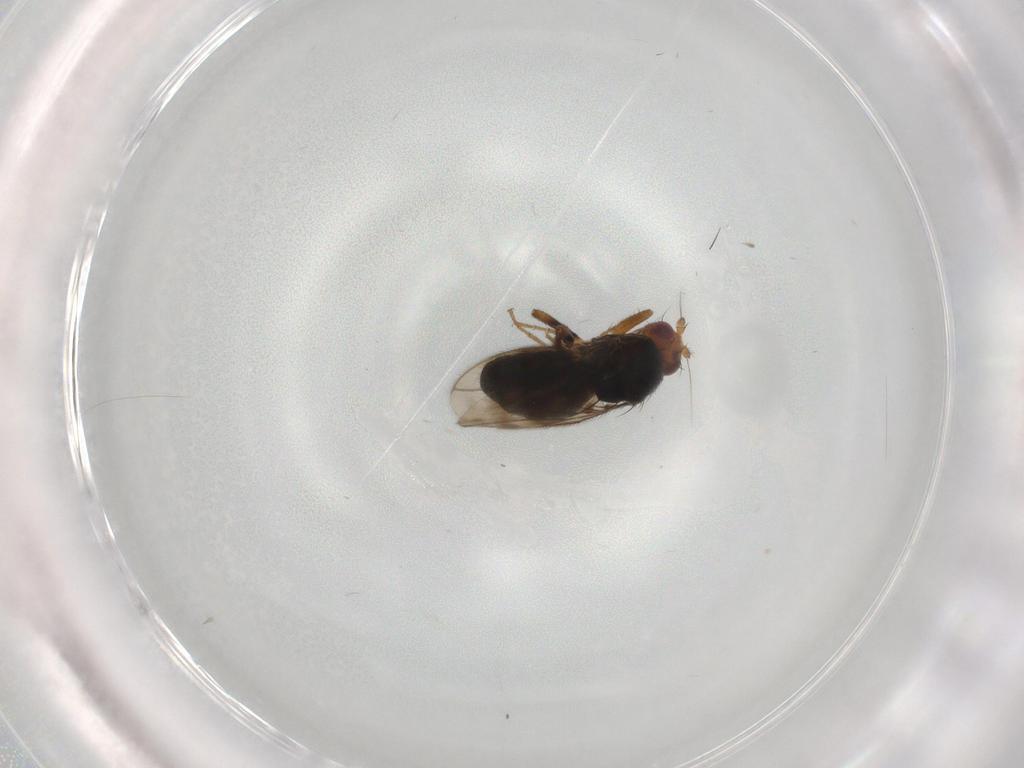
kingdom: Animalia
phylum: Arthropoda
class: Insecta
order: Diptera
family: Sphaeroceridae
